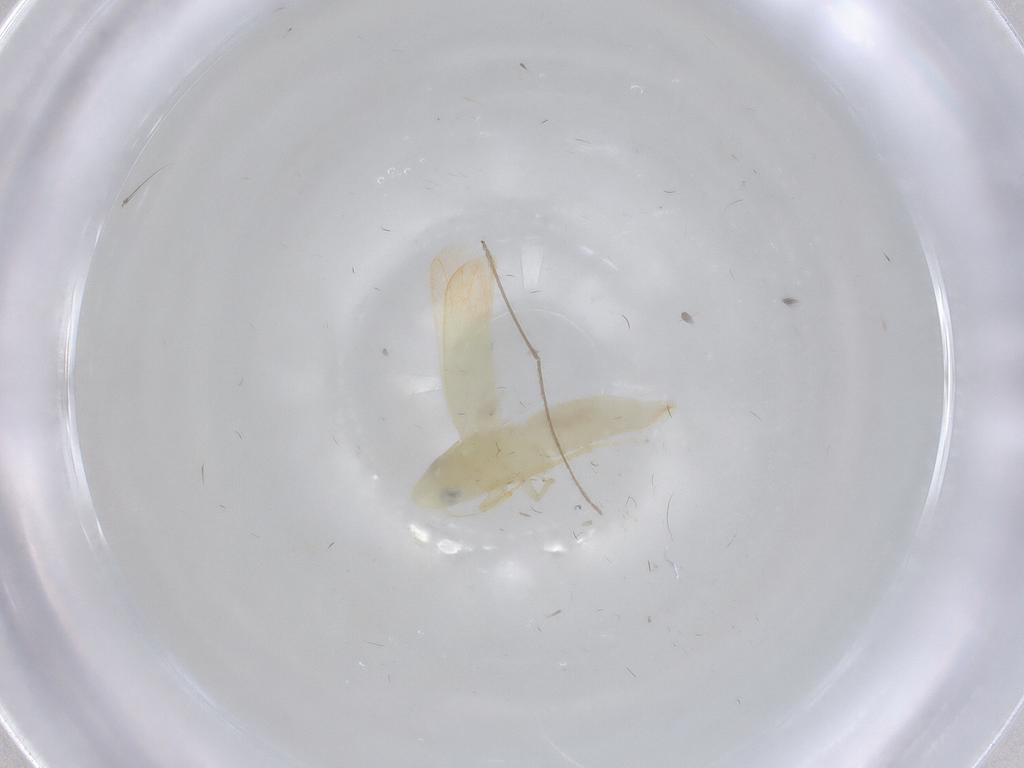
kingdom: Animalia
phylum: Arthropoda
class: Insecta
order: Hemiptera
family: Cicadellidae
